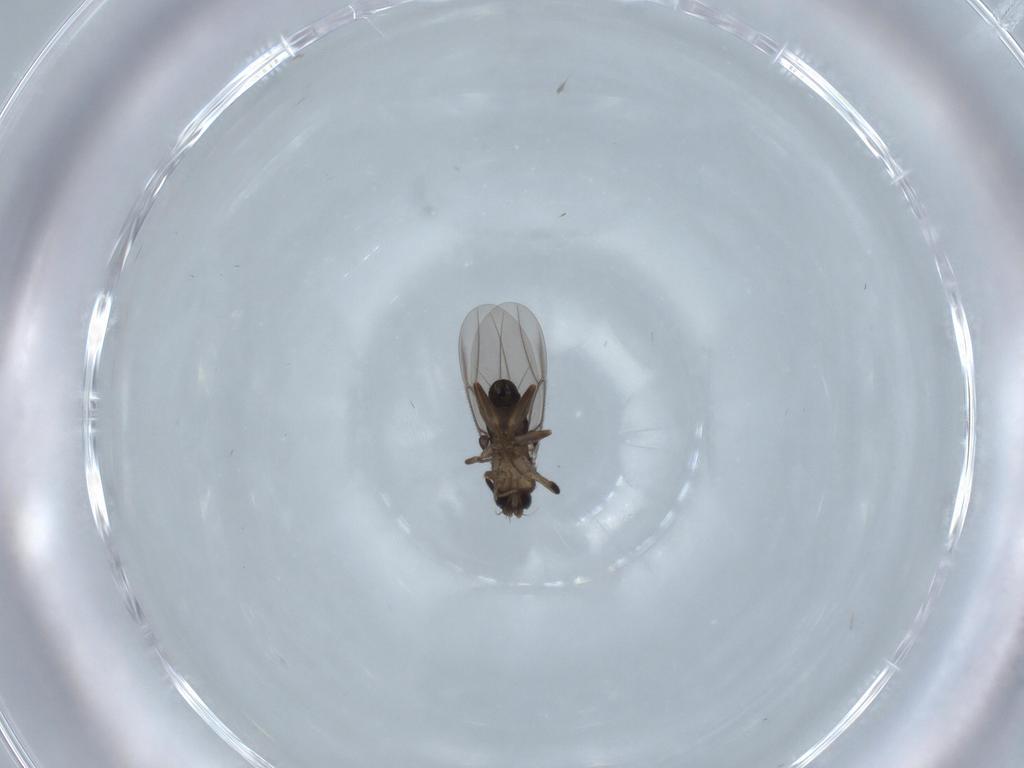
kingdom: Animalia
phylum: Arthropoda
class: Insecta
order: Diptera
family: Phoridae
